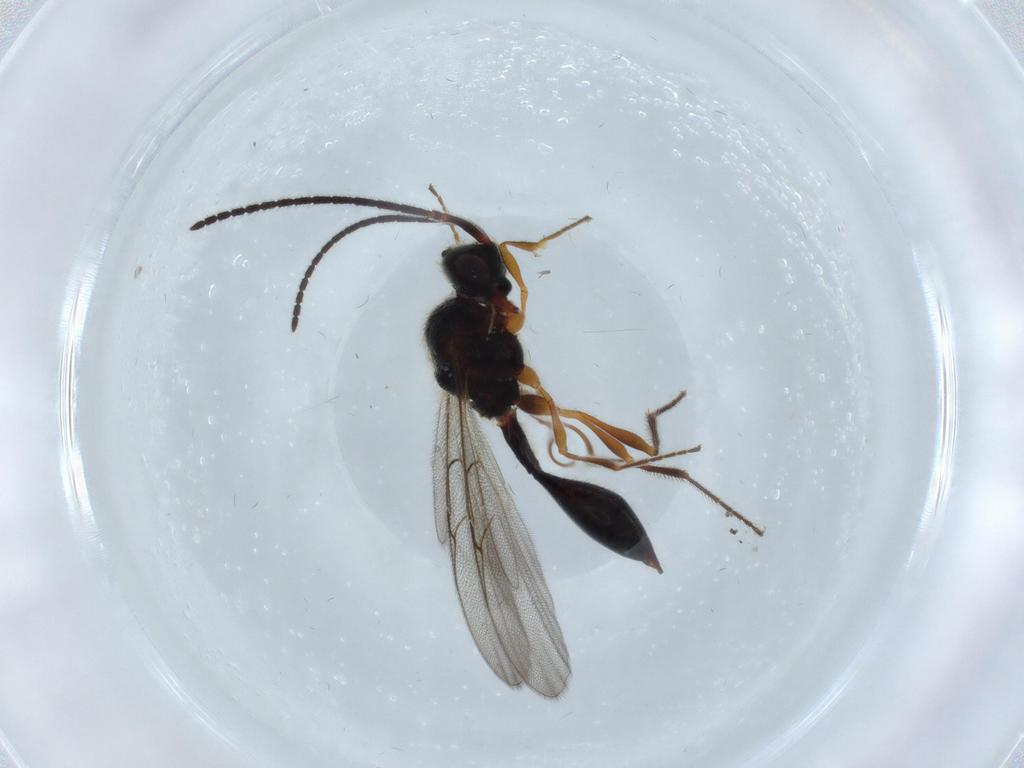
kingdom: Animalia
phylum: Arthropoda
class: Insecta
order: Hymenoptera
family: Diapriidae
